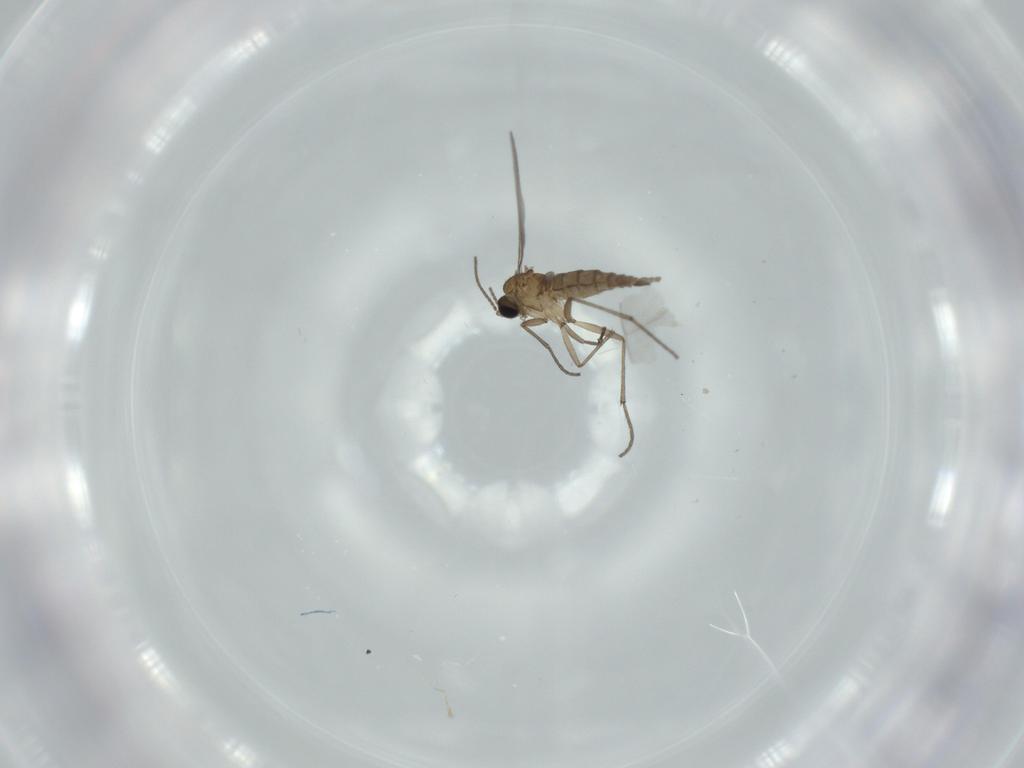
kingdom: Animalia
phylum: Arthropoda
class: Insecta
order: Diptera
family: Sciaridae
